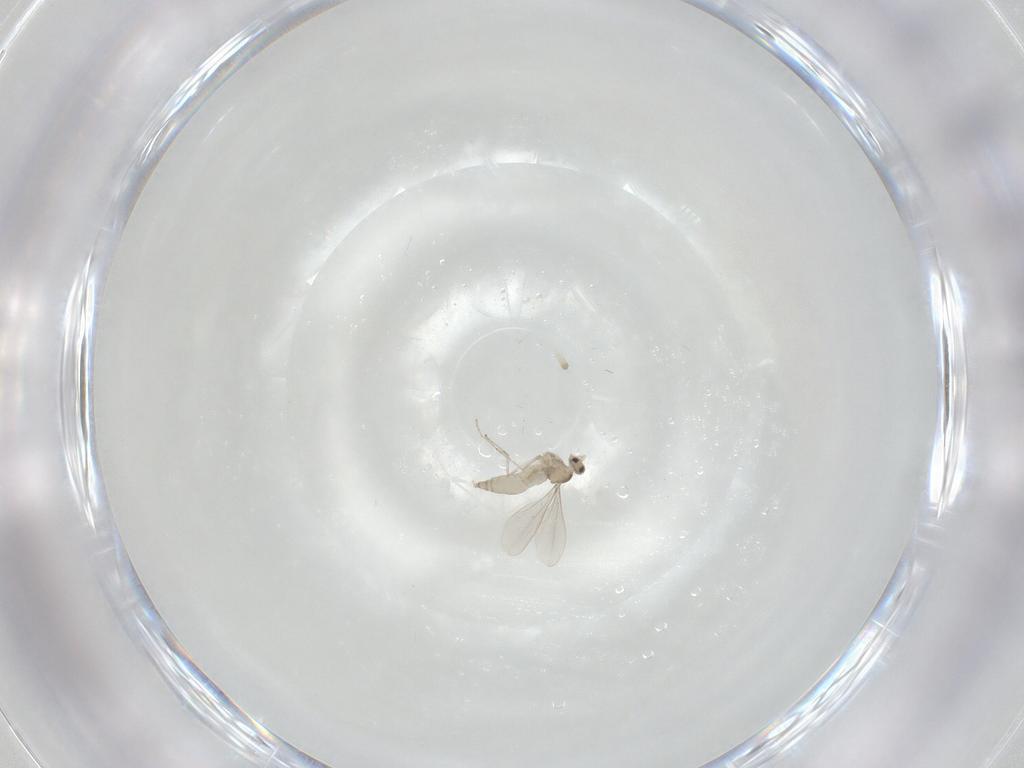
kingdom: Animalia
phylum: Arthropoda
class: Insecta
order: Diptera
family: Cecidomyiidae
